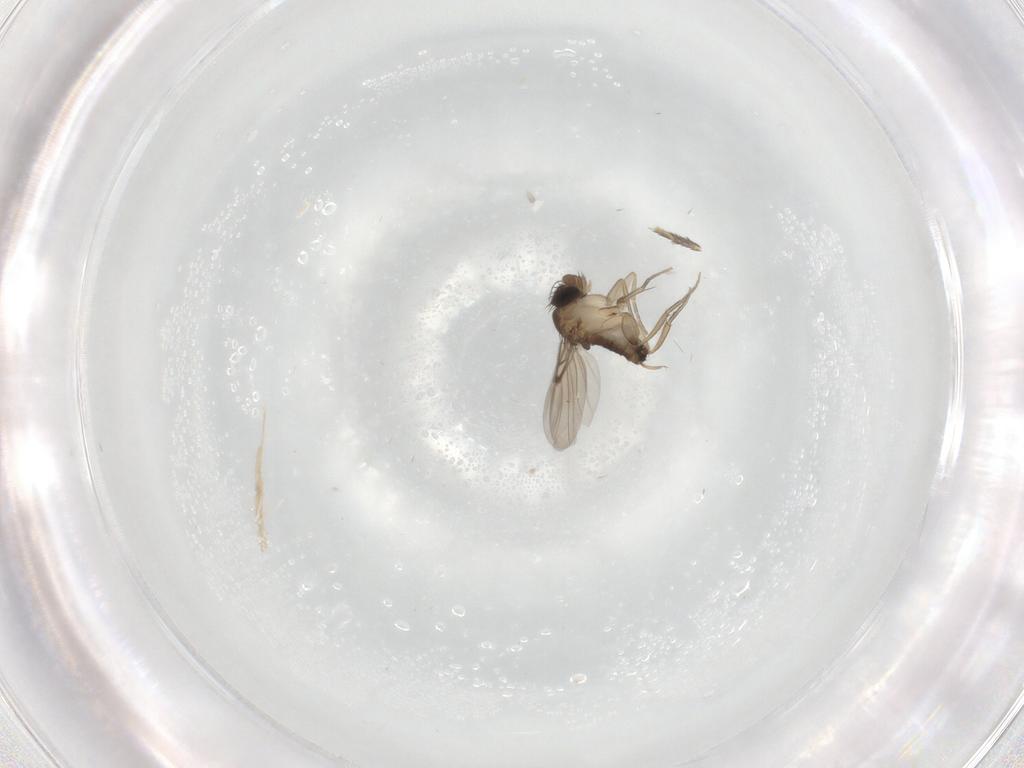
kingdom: Animalia
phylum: Arthropoda
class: Insecta
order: Diptera
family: Phoridae
